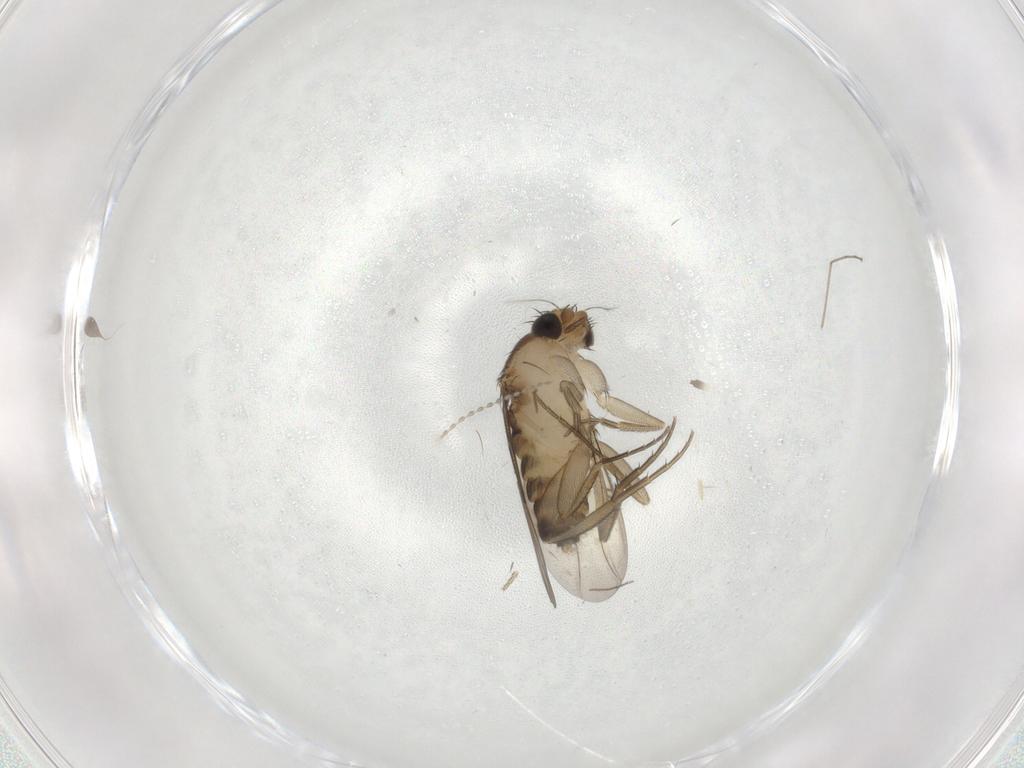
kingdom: Animalia
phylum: Arthropoda
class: Insecta
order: Diptera
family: Phoridae
